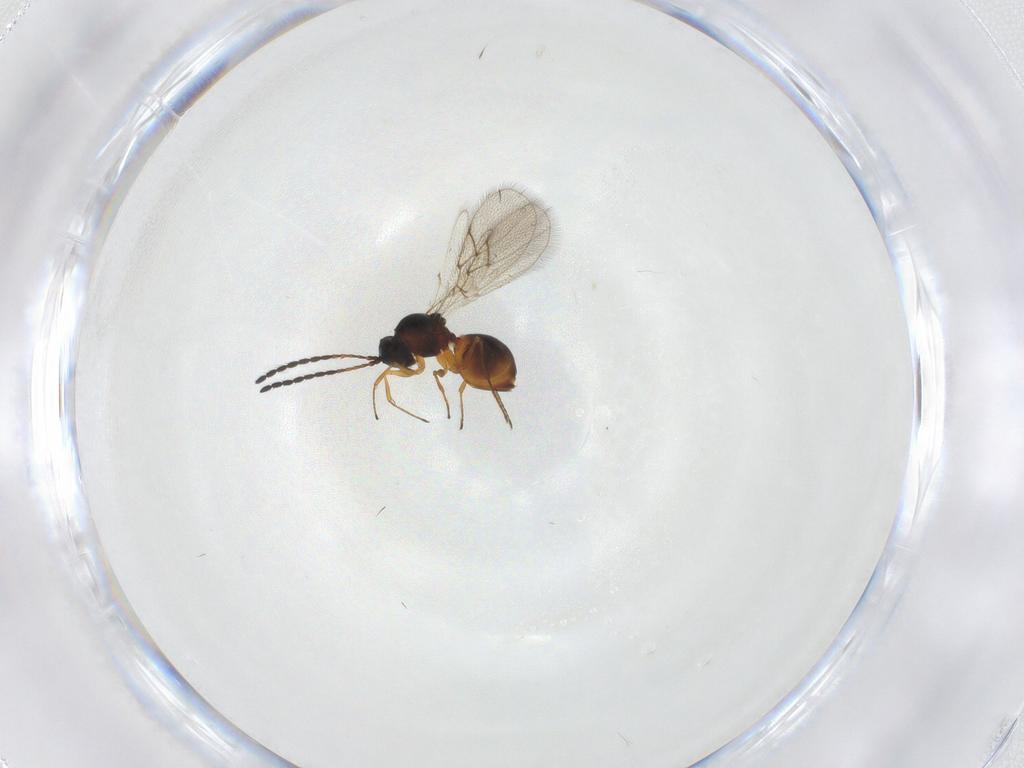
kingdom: Animalia
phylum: Arthropoda
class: Insecta
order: Hymenoptera
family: Figitidae
